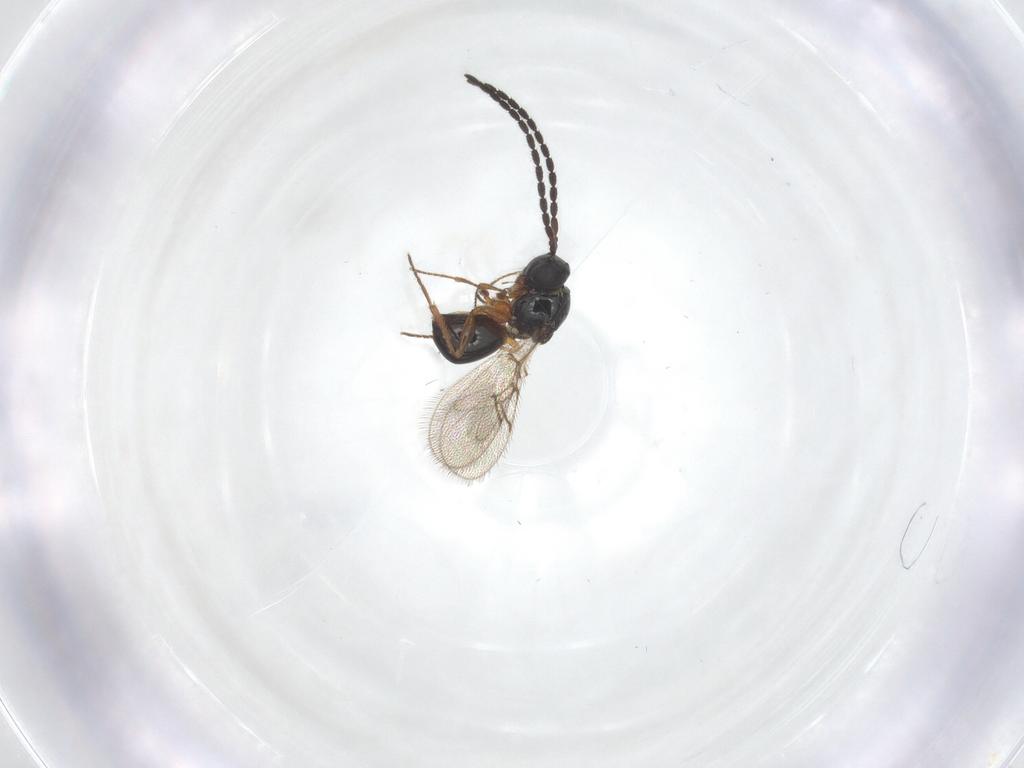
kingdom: Animalia
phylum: Arthropoda
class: Insecta
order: Hymenoptera
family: Figitidae
